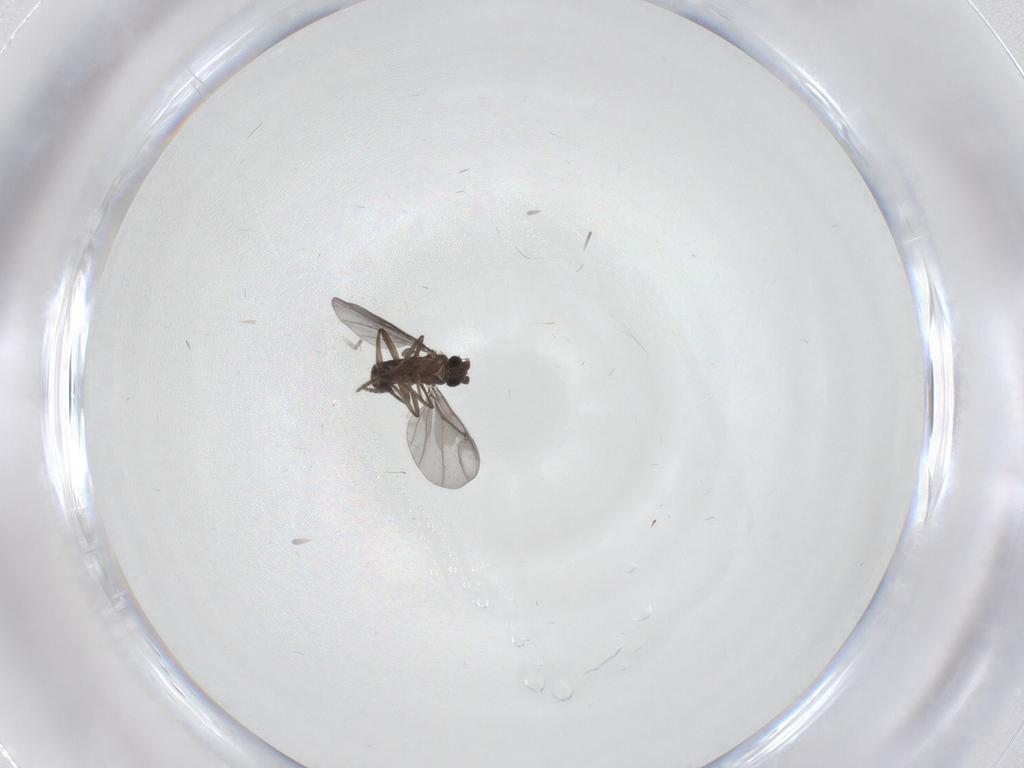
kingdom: Animalia
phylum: Arthropoda
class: Insecta
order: Diptera
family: Phoridae
